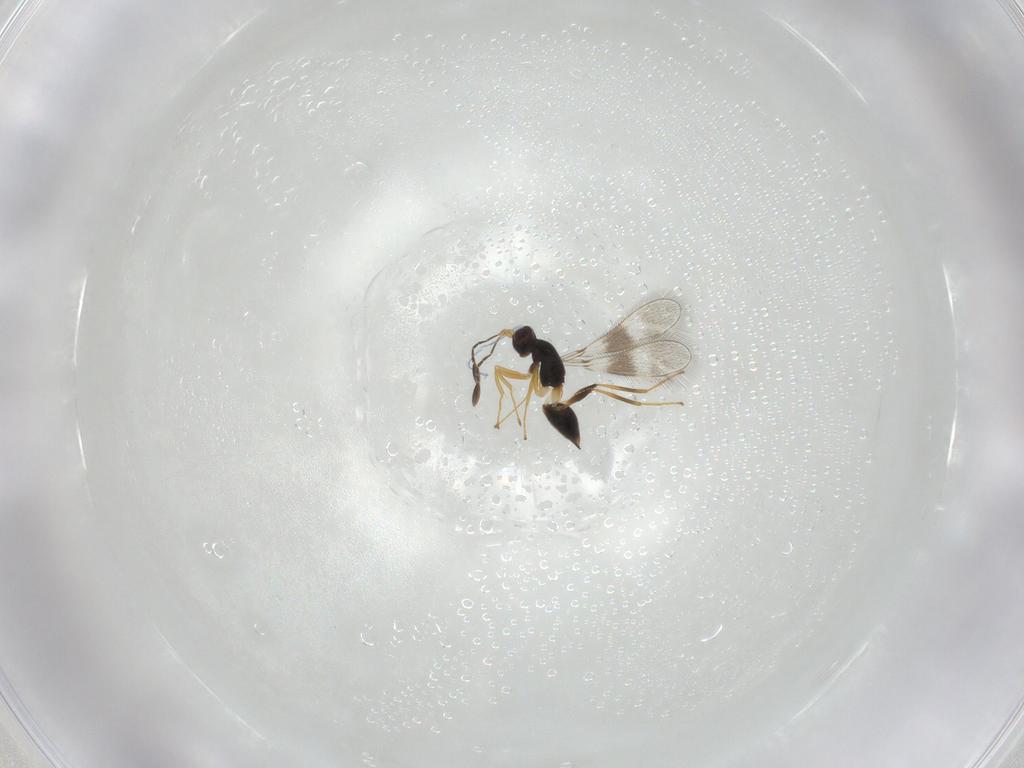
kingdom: Animalia
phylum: Arthropoda
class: Insecta
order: Hymenoptera
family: Mymaridae
